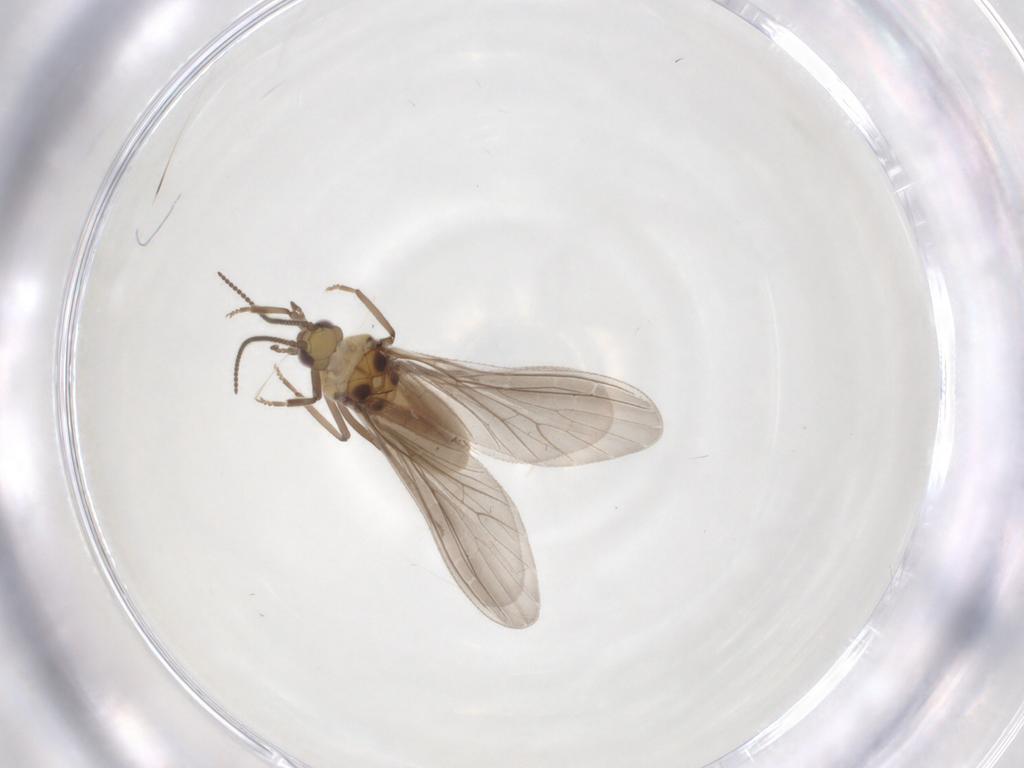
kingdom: Animalia
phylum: Arthropoda
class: Insecta
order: Neuroptera
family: Coniopterygidae
